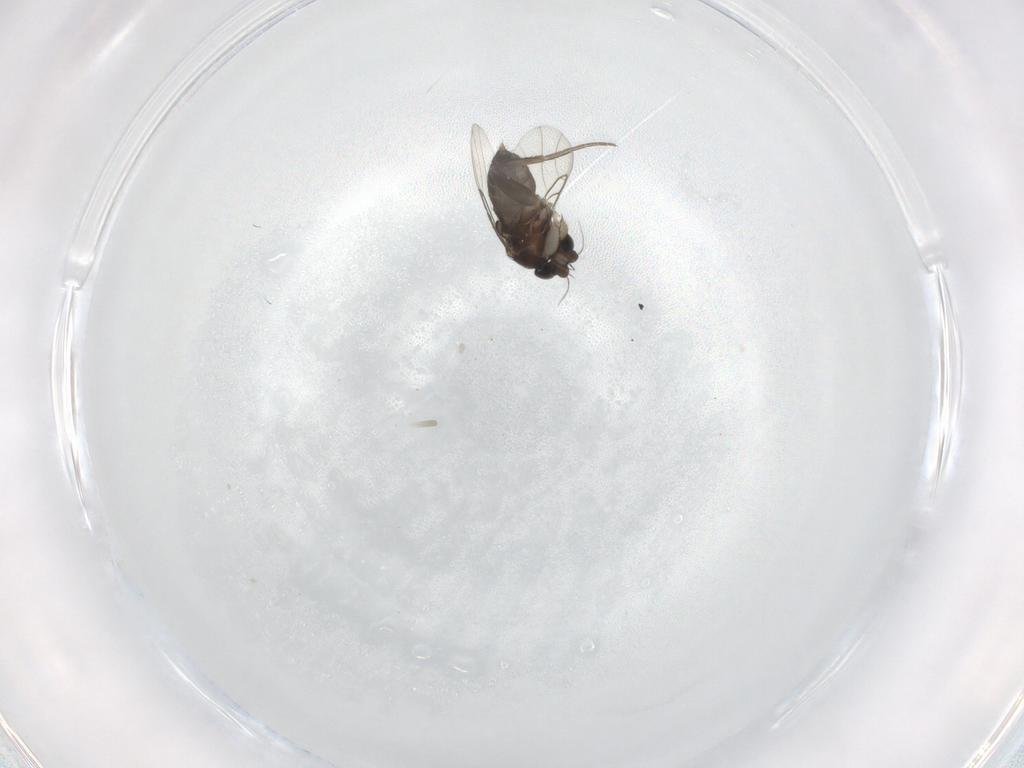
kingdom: Animalia
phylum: Arthropoda
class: Insecta
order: Diptera
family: Phoridae
